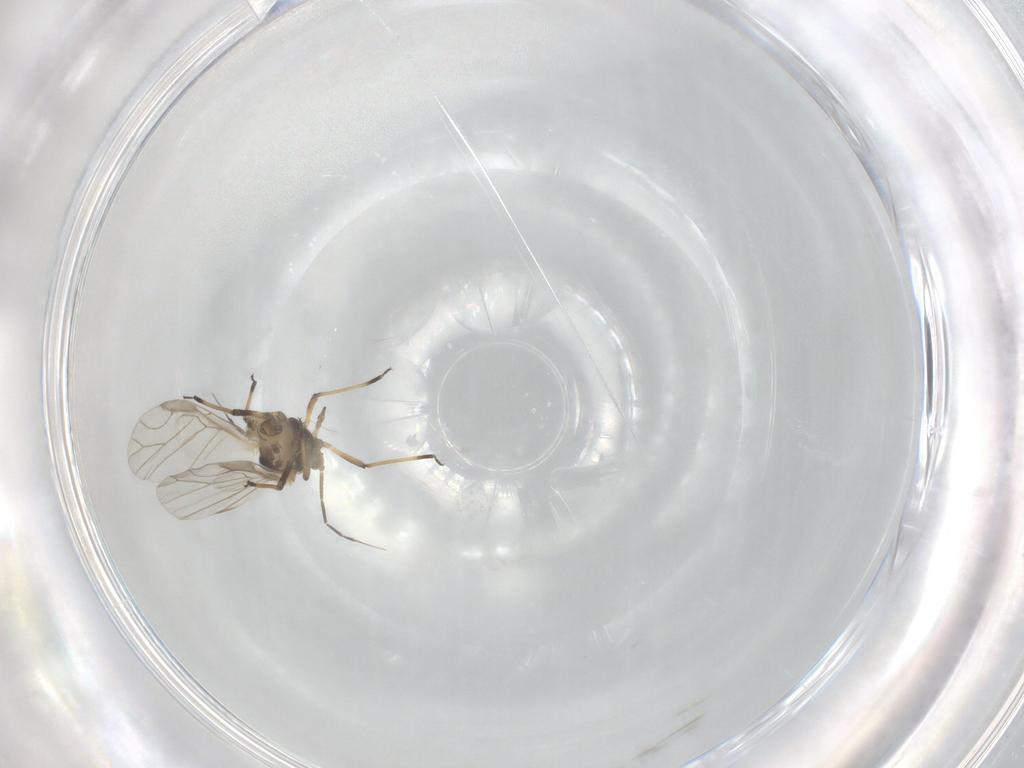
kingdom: Animalia
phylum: Arthropoda
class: Insecta
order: Hemiptera
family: Aphididae
